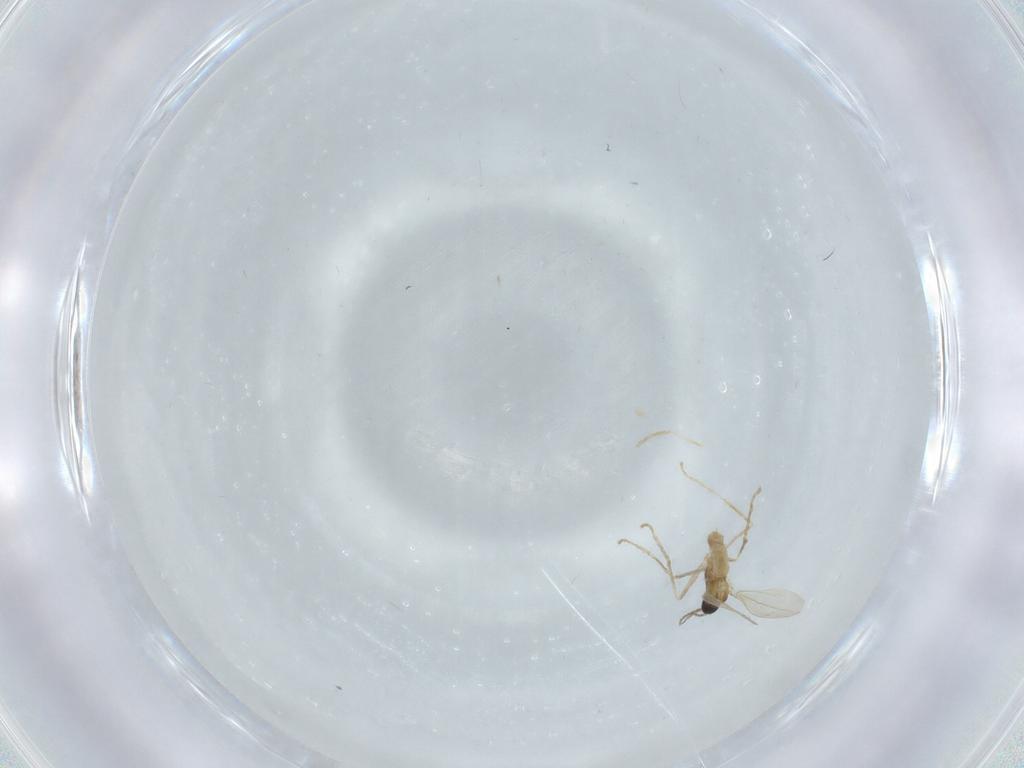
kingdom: Animalia
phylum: Arthropoda
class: Insecta
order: Diptera
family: Cecidomyiidae
